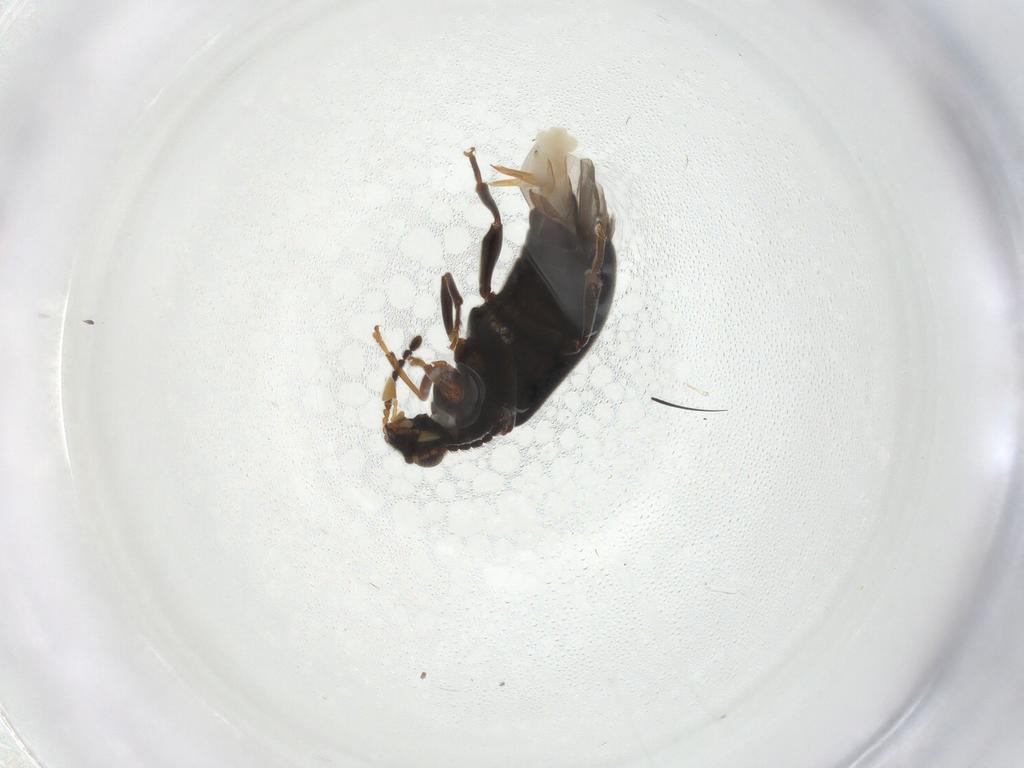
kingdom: Animalia
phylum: Arthropoda
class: Insecta
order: Coleoptera
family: Aderidae
